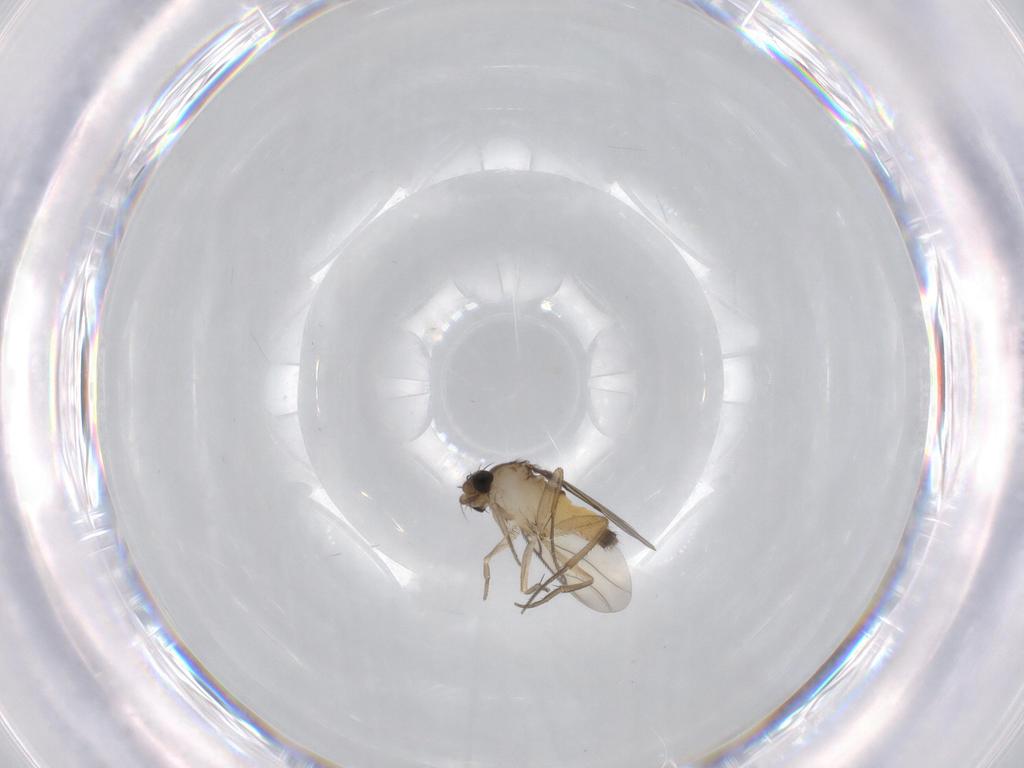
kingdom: Animalia
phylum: Arthropoda
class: Insecta
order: Diptera
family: Phoridae
